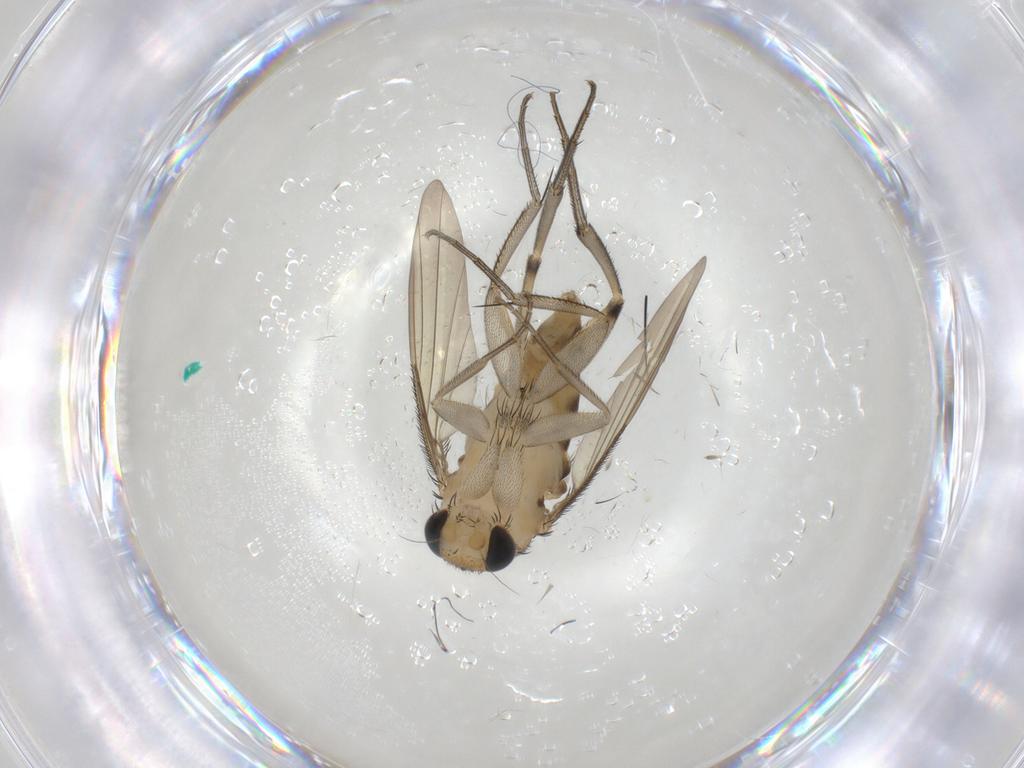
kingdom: Animalia
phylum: Arthropoda
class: Insecta
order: Diptera
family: Phoridae
